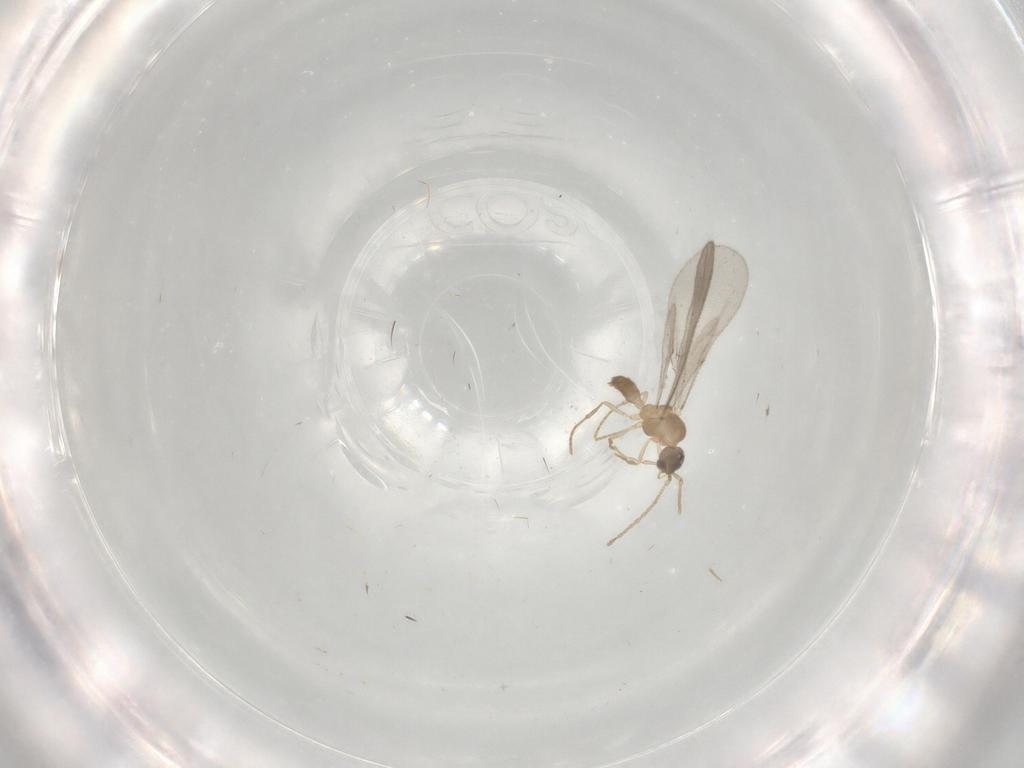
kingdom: Animalia
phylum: Arthropoda
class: Insecta
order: Hymenoptera
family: Formicidae
